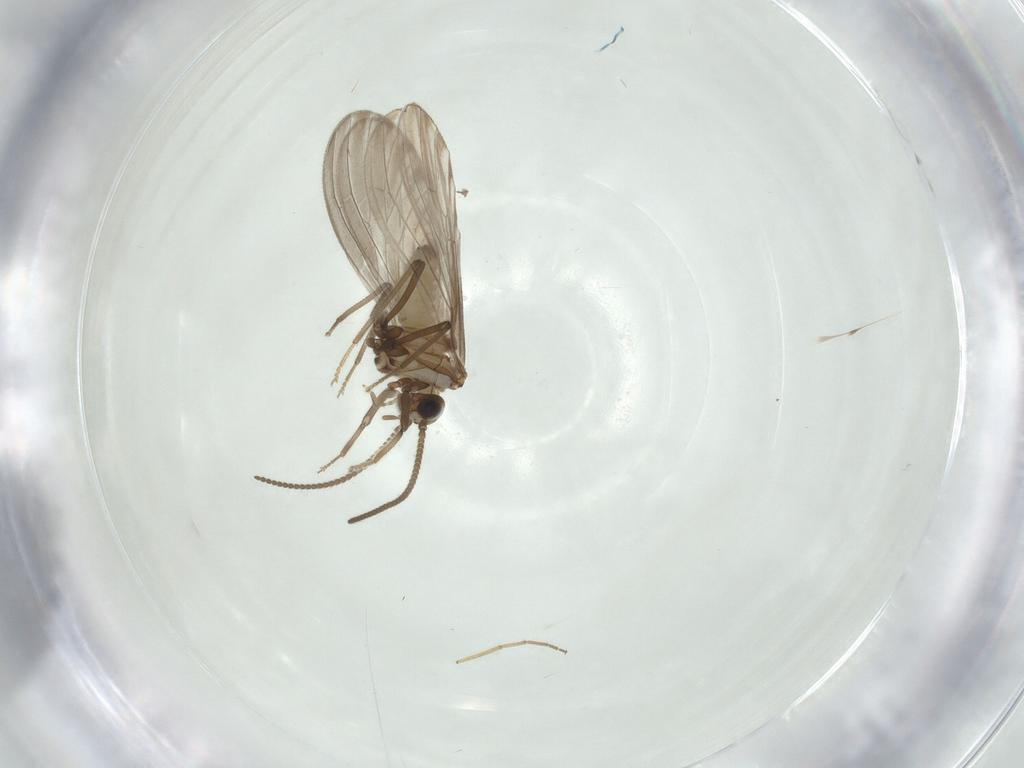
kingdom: Animalia
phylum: Arthropoda
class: Insecta
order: Neuroptera
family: Coniopterygidae
